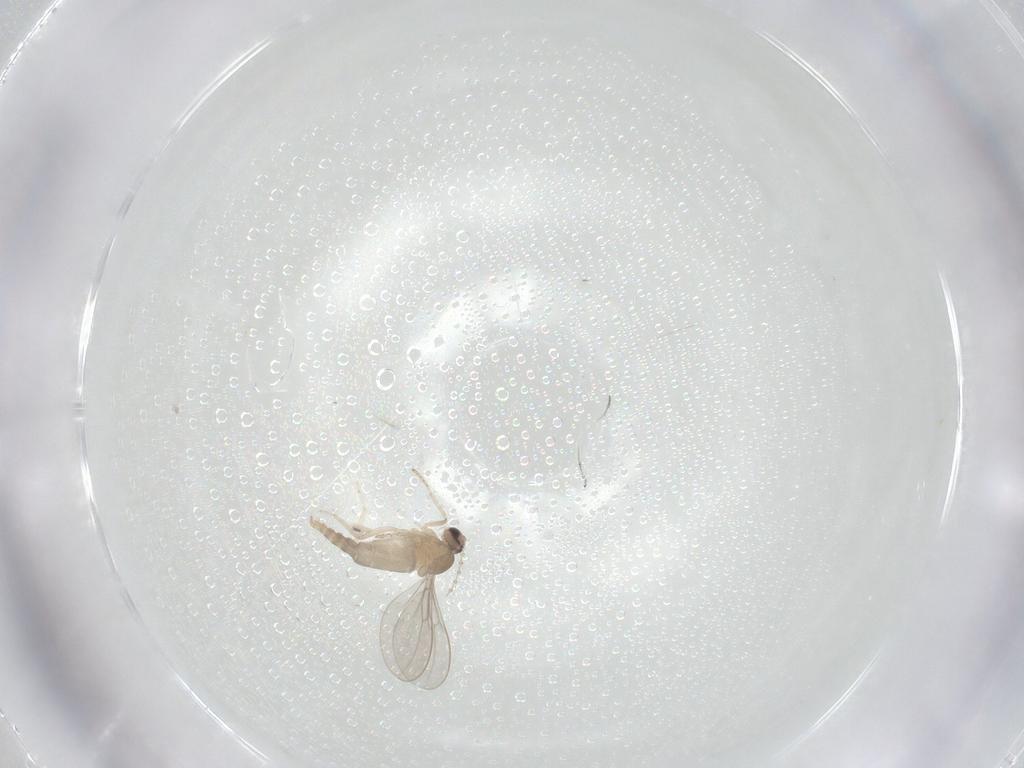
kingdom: Animalia
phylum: Arthropoda
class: Insecta
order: Diptera
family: Cecidomyiidae
